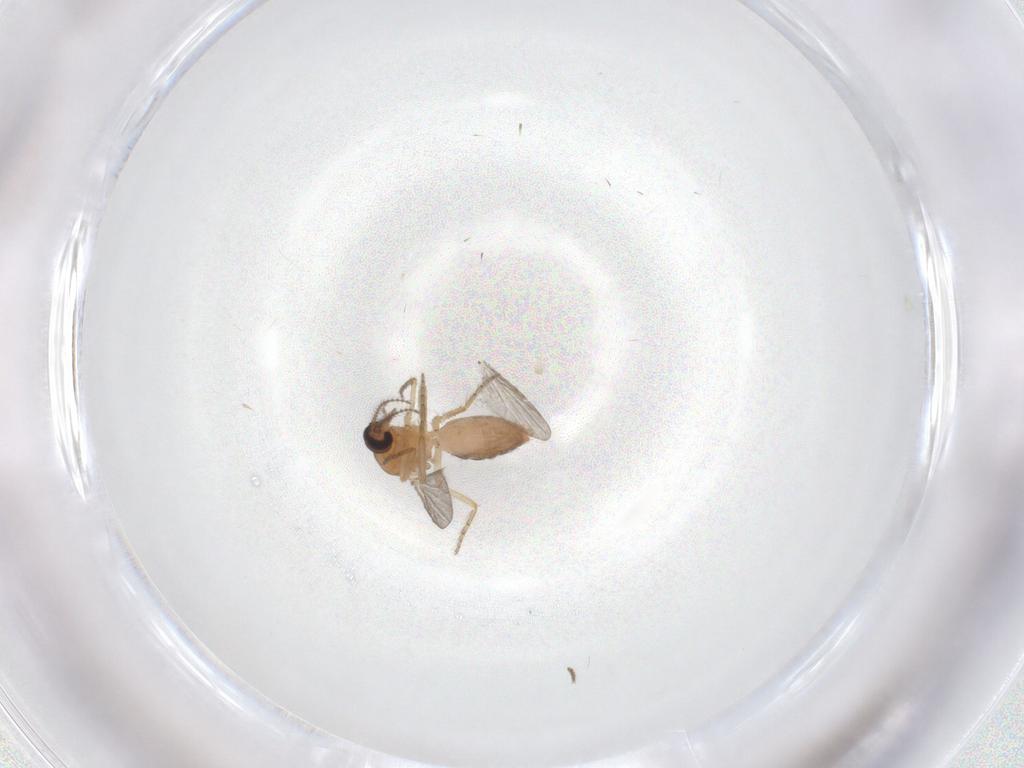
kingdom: Animalia
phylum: Arthropoda
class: Insecta
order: Diptera
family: Ceratopogonidae
